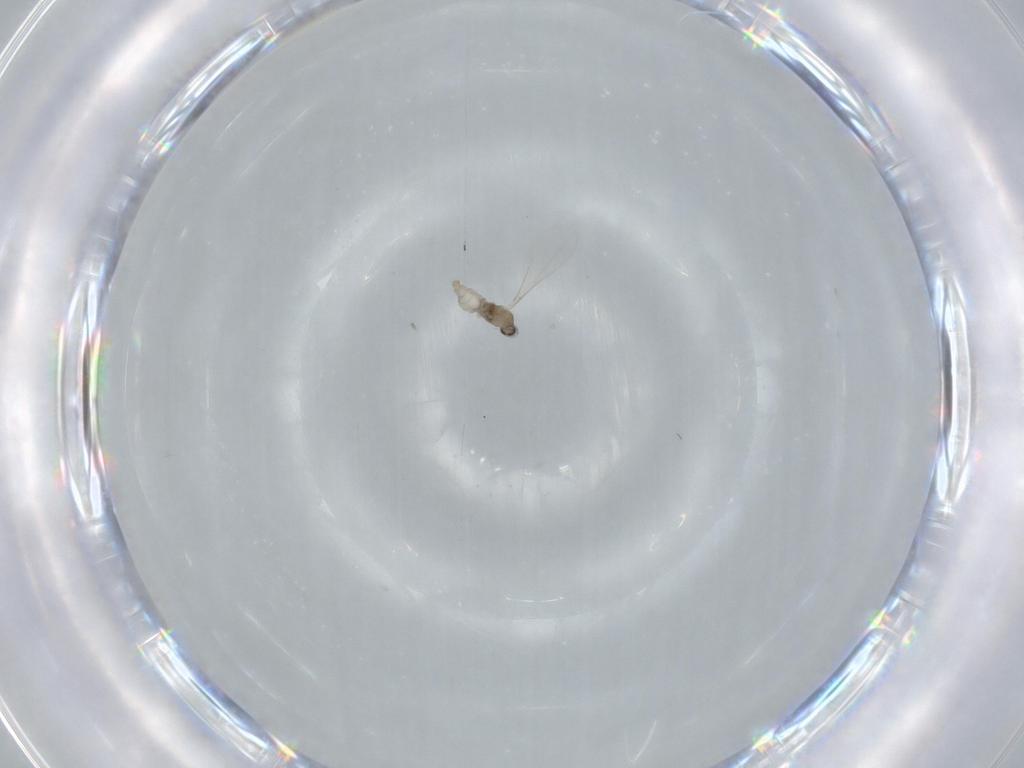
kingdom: Animalia
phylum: Arthropoda
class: Insecta
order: Diptera
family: Cecidomyiidae
